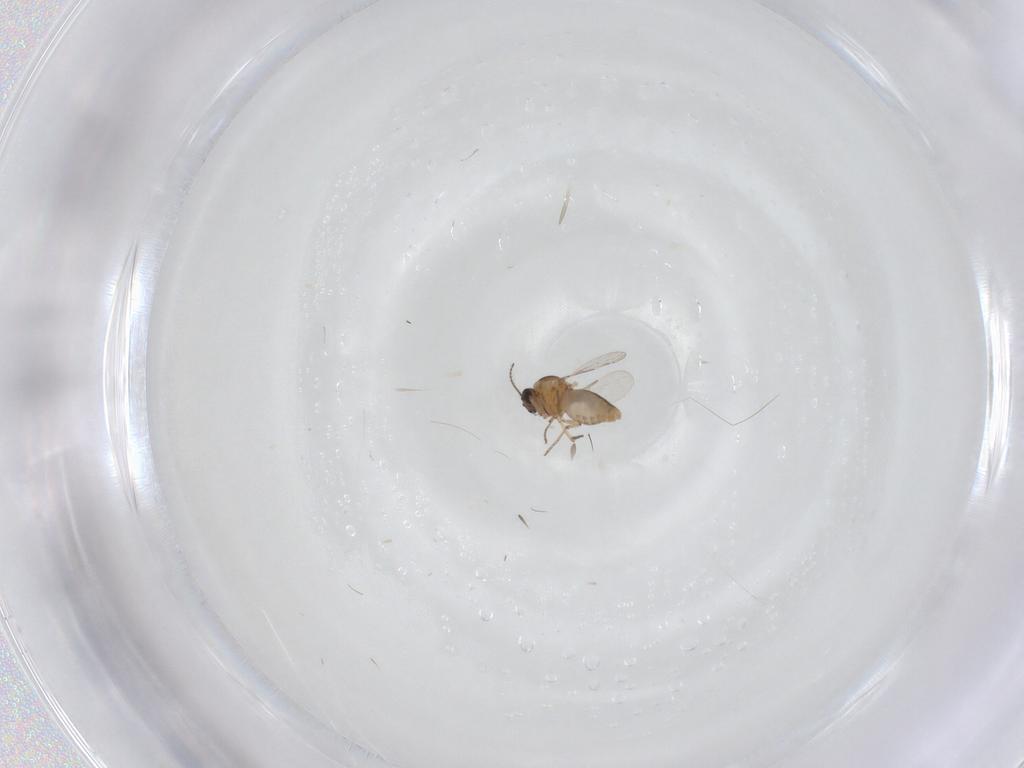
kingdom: Animalia
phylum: Arthropoda
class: Insecta
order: Diptera
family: Ceratopogonidae
